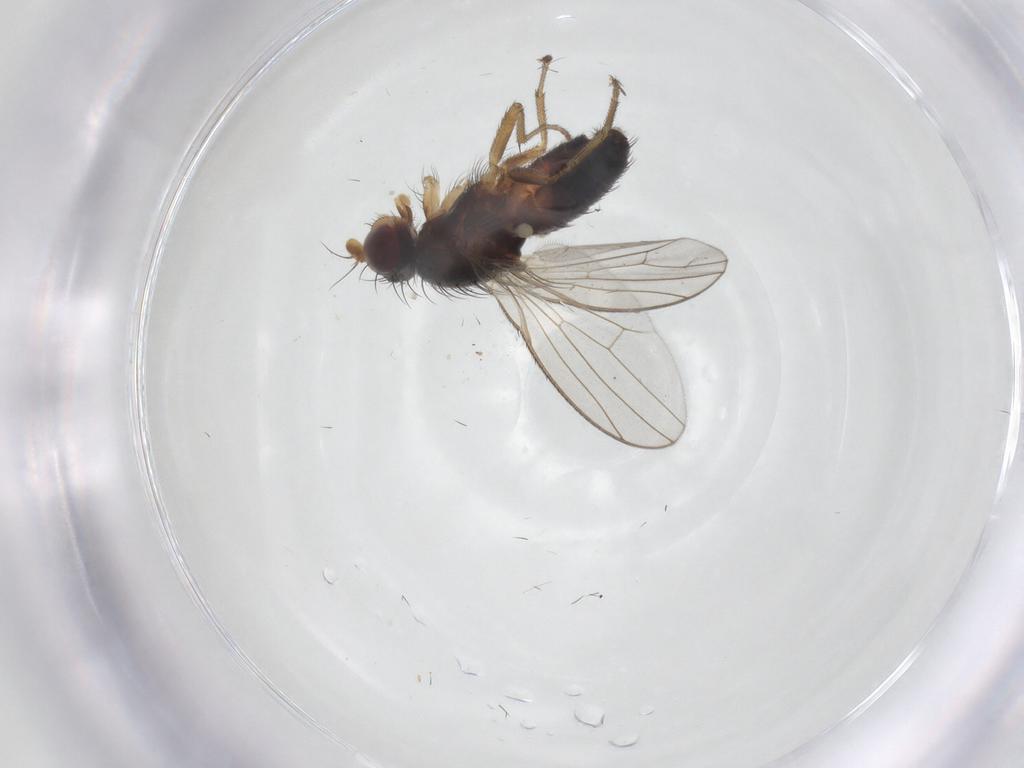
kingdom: Animalia
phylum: Arthropoda
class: Insecta
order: Diptera
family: Heleomyzidae
